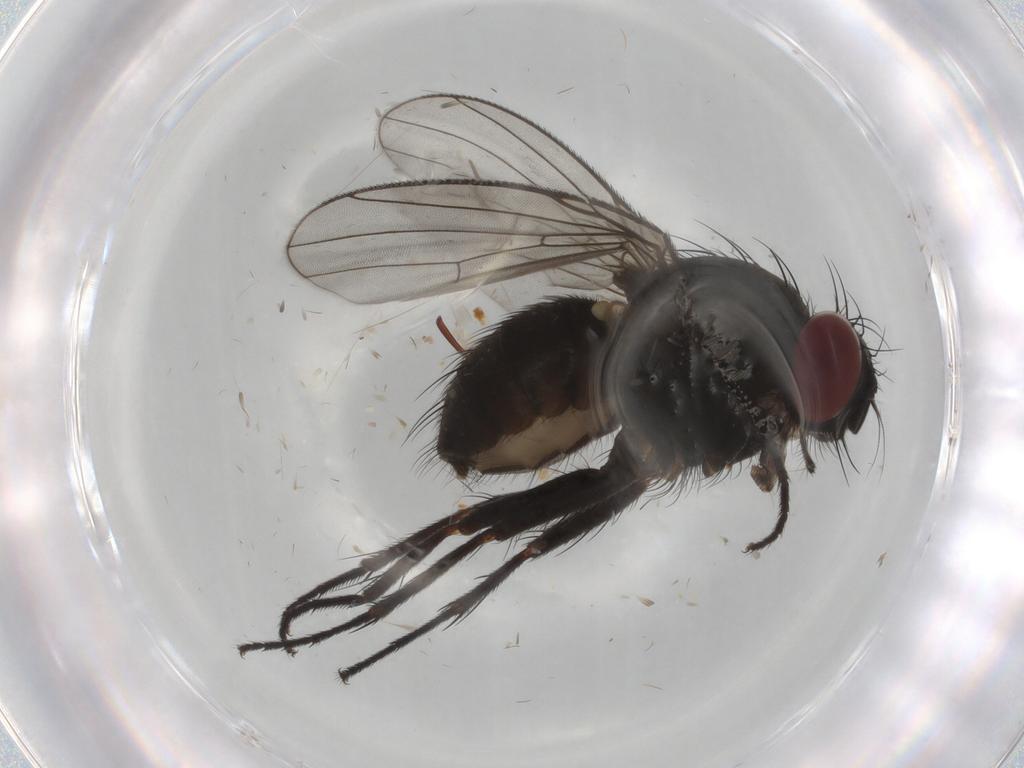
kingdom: Animalia
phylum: Arthropoda
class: Insecta
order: Diptera
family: Muscidae
